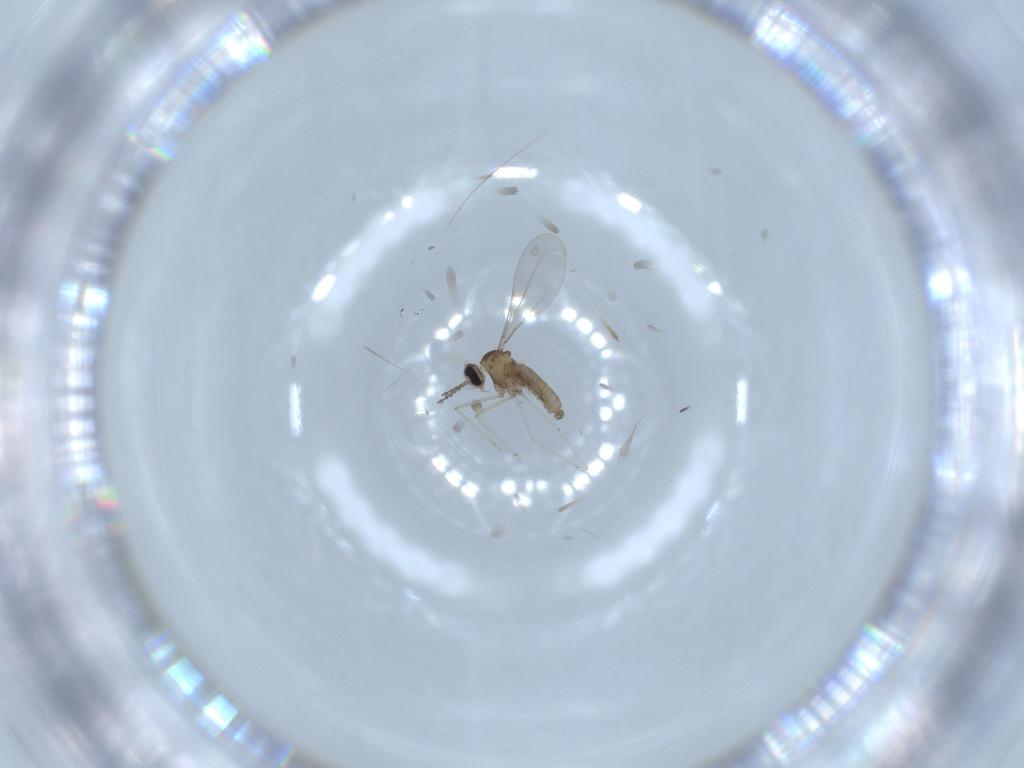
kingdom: Animalia
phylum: Arthropoda
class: Insecta
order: Diptera
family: Cecidomyiidae
